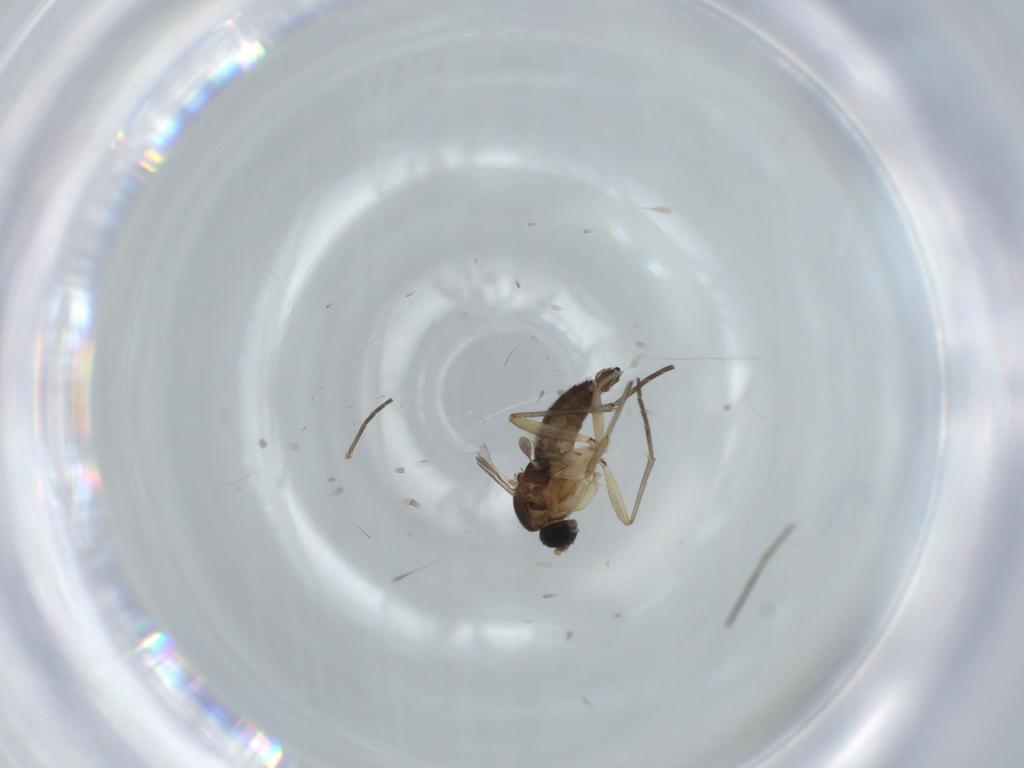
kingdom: Animalia
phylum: Arthropoda
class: Insecta
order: Diptera
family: Sciaridae
